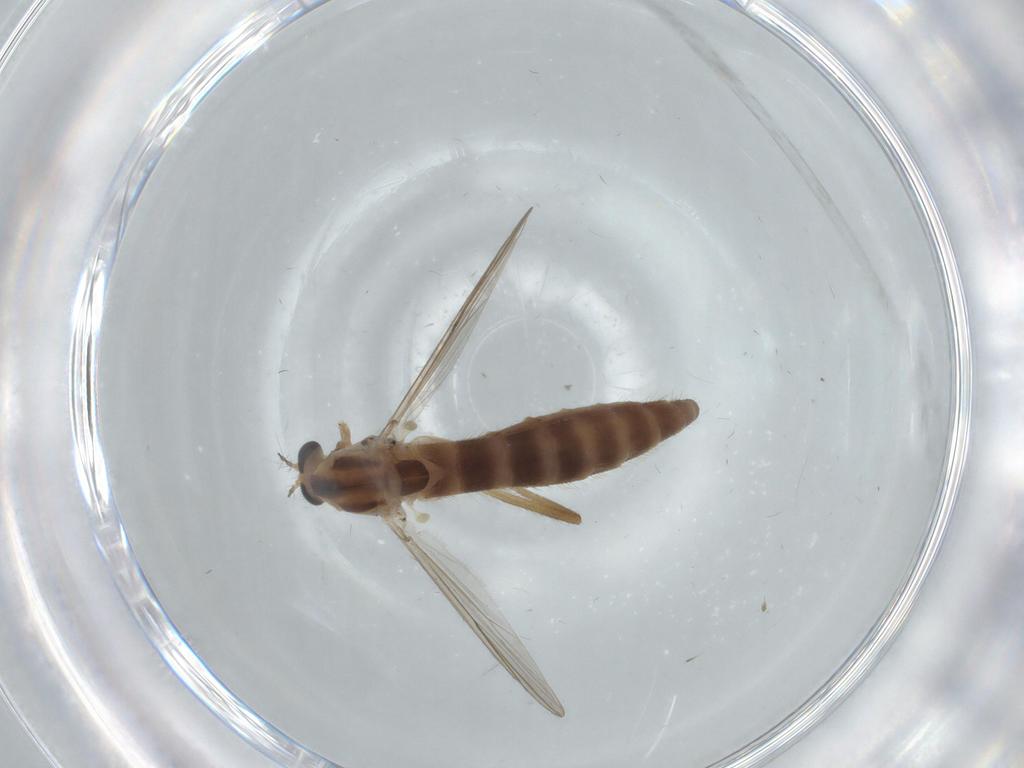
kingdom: Animalia
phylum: Arthropoda
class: Insecta
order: Diptera
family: Chironomidae
